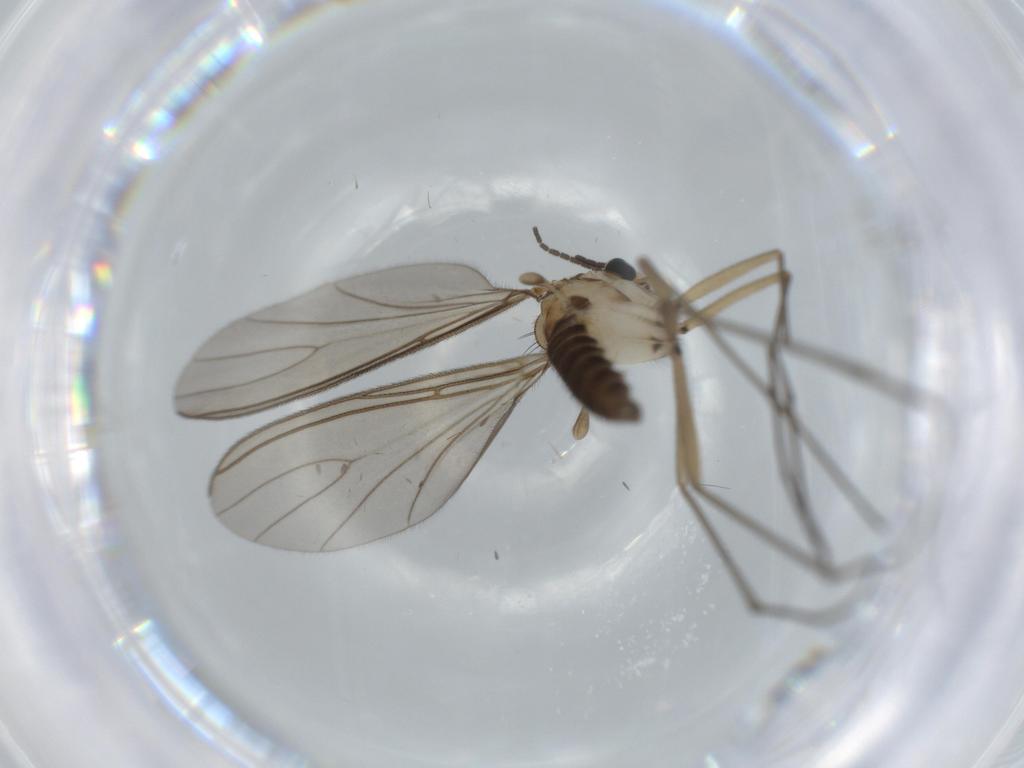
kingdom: Animalia
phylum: Arthropoda
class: Insecta
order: Diptera
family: Sciaridae
